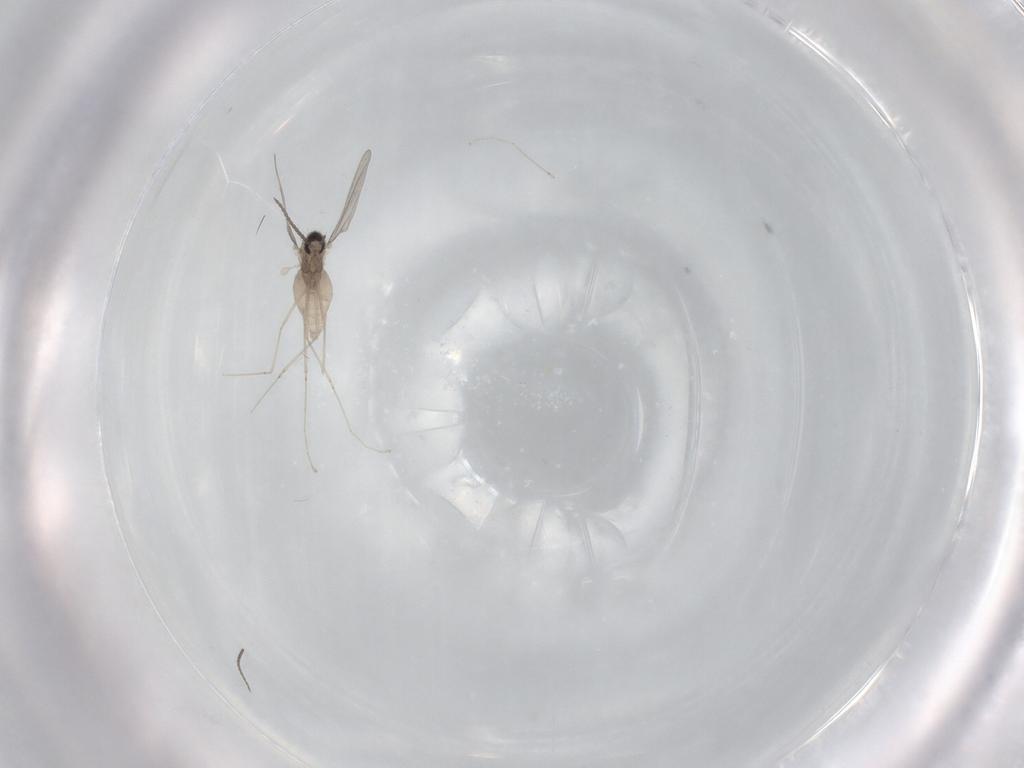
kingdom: Animalia
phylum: Arthropoda
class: Insecta
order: Diptera
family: Cecidomyiidae
